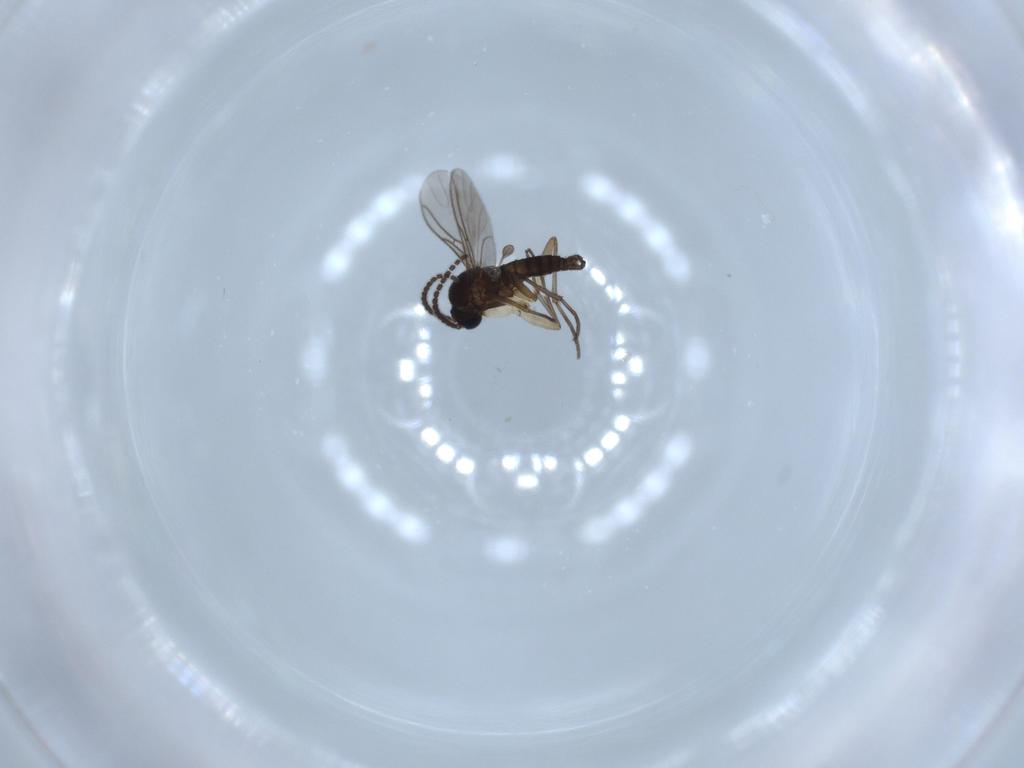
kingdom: Animalia
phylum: Arthropoda
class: Insecta
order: Diptera
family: Sciaridae
